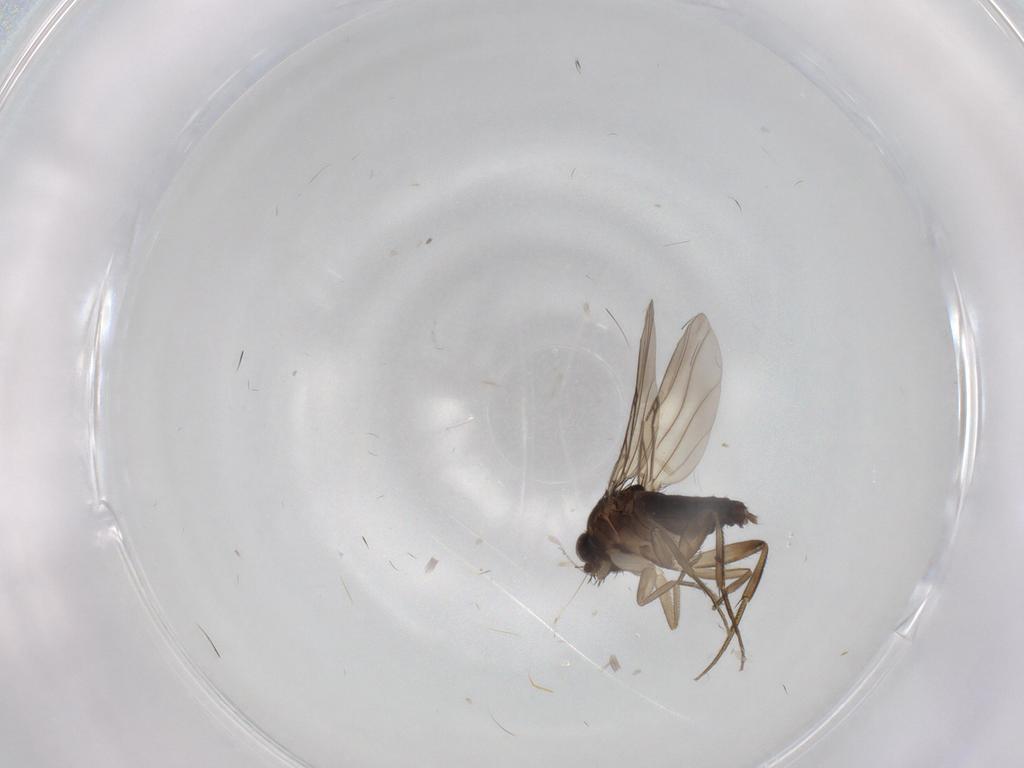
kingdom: Animalia
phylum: Arthropoda
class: Insecta
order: Diptera
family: Phoridae
